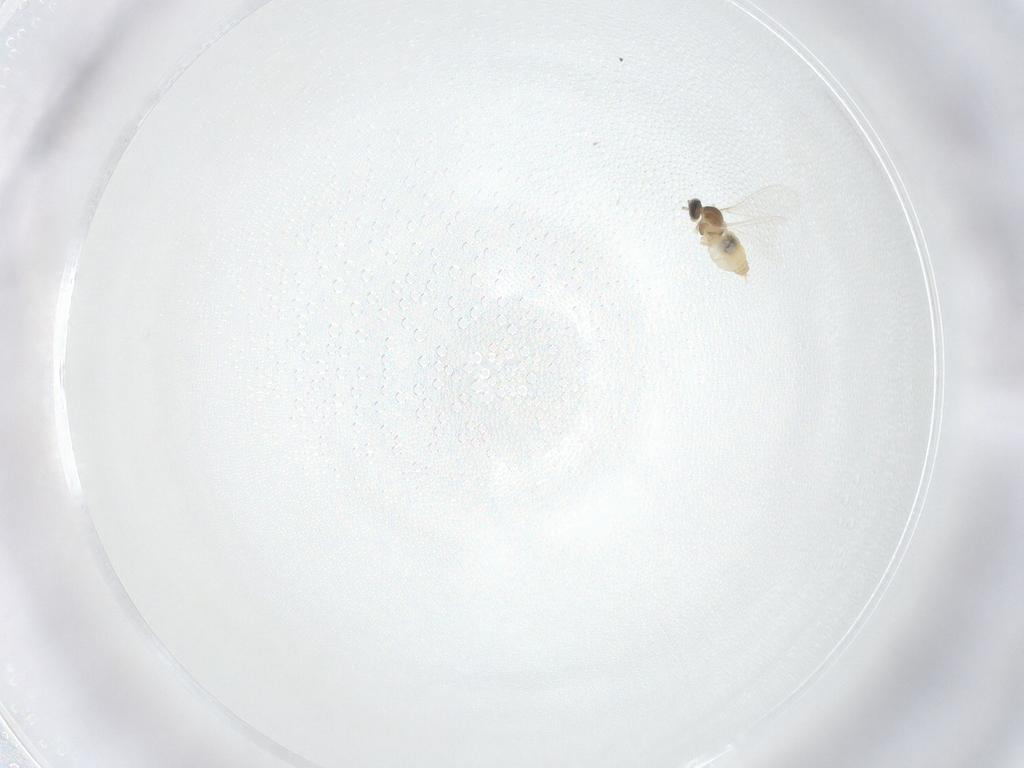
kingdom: Animalia
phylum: Arthropoda
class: Insecta
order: Diptera
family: Cecidomyiidae
